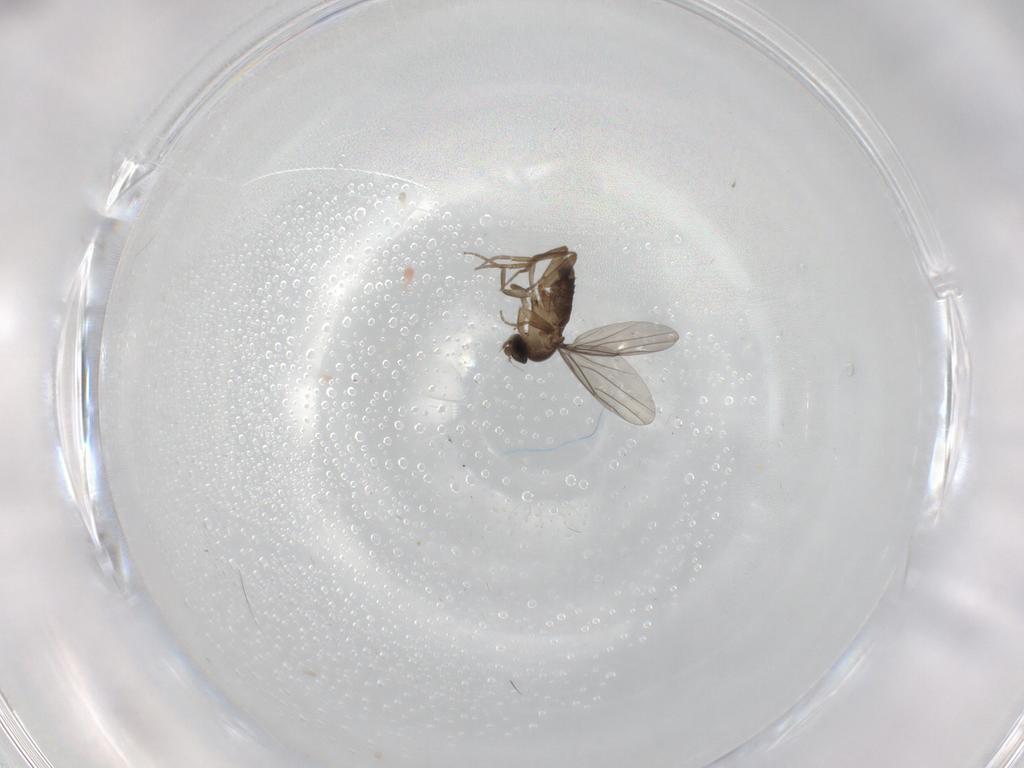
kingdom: Animalia
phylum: Arthropoda
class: Insecta
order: Diptera
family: Phoridae
